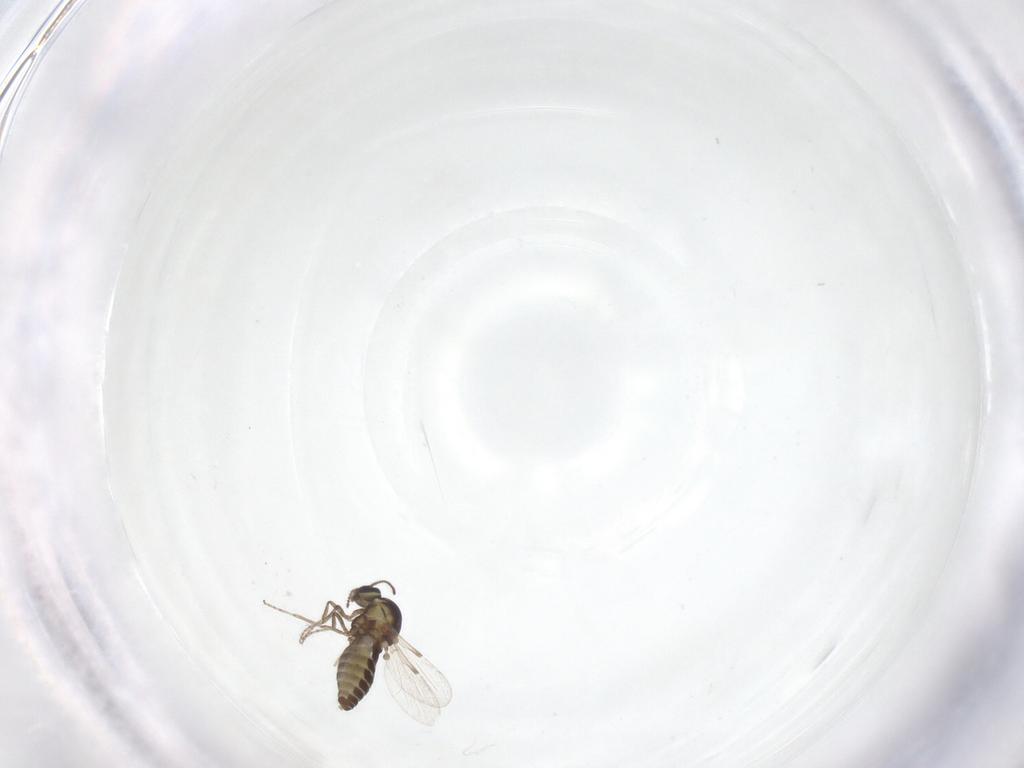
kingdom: Animalia
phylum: Arthropoda
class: Insecta
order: Diptera
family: Ceratopogonidae
